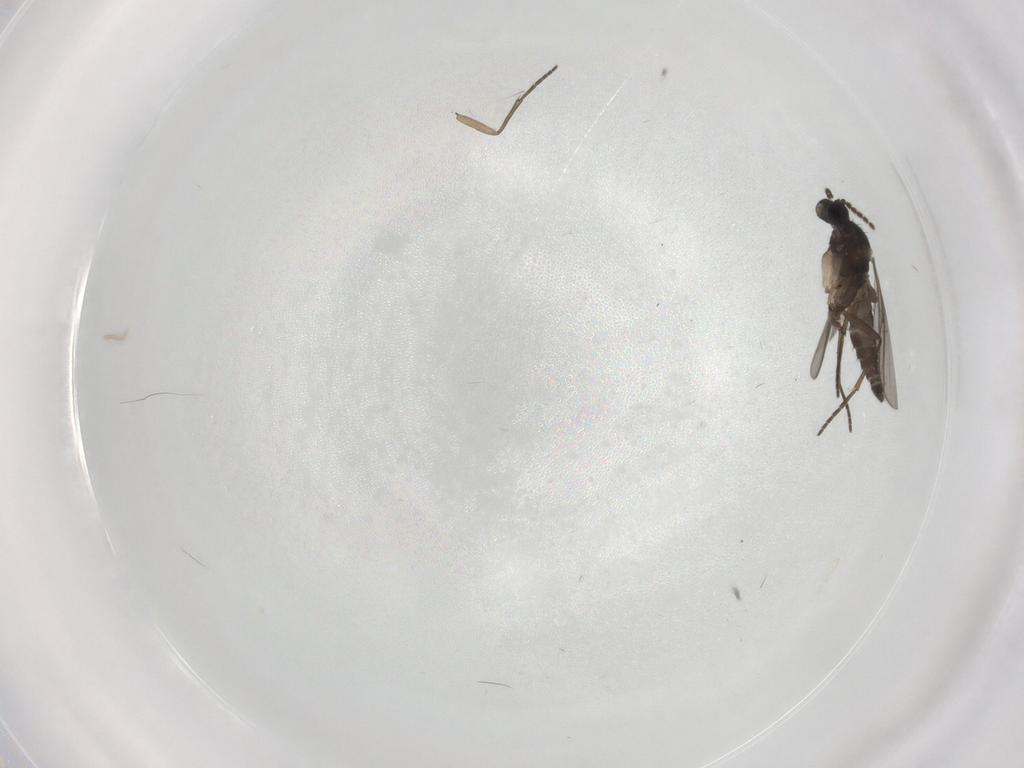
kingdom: Animalia
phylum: Arthropoda
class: Insecta
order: Diptera
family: Sciaridae
